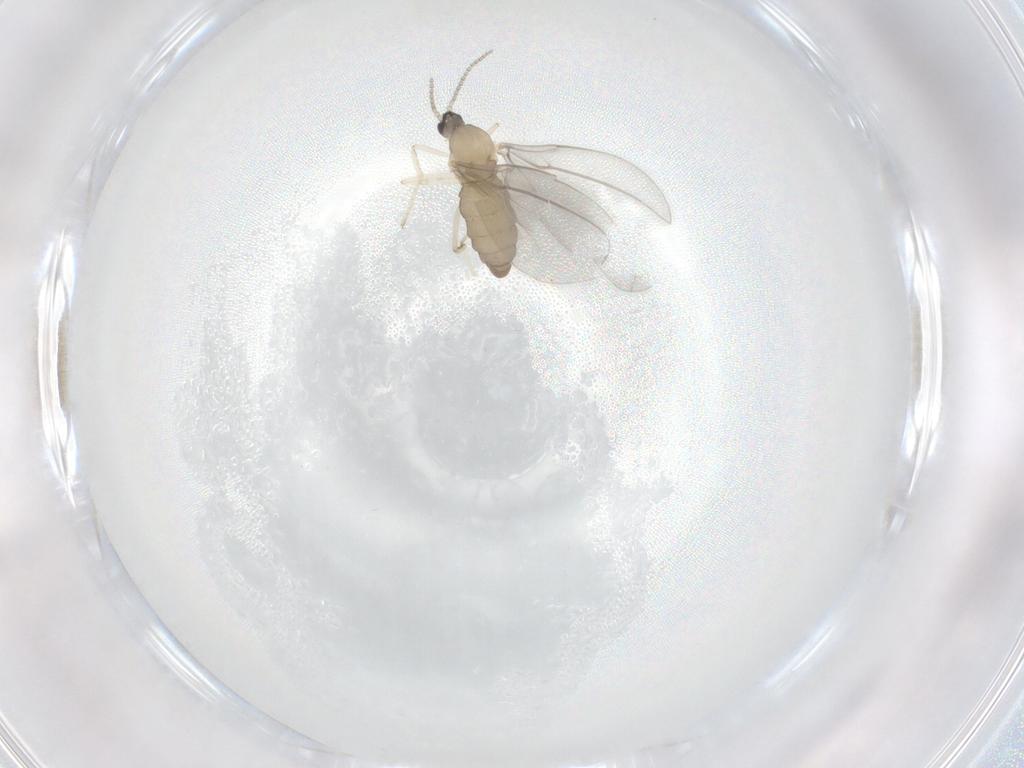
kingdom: Animalia
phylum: Arthropoda
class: Insecta
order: Diptera
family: Cecidomyiidae
